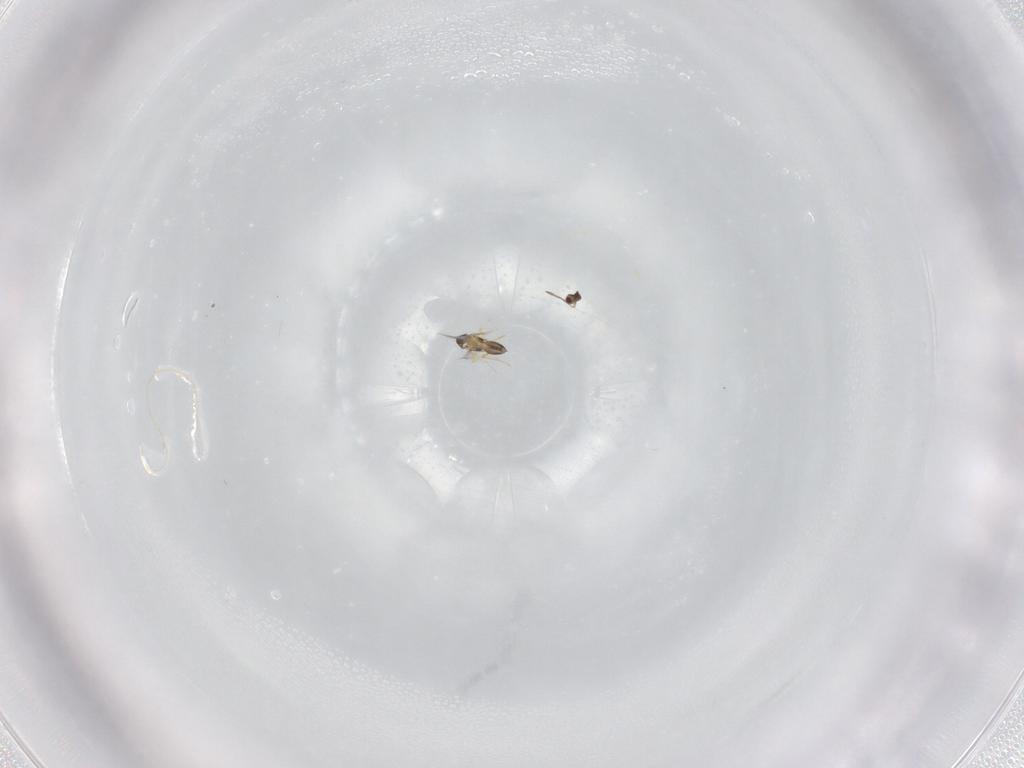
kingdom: Animalia
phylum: Arthropoda
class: Insecta
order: Hymenoptera
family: Mymaridae
